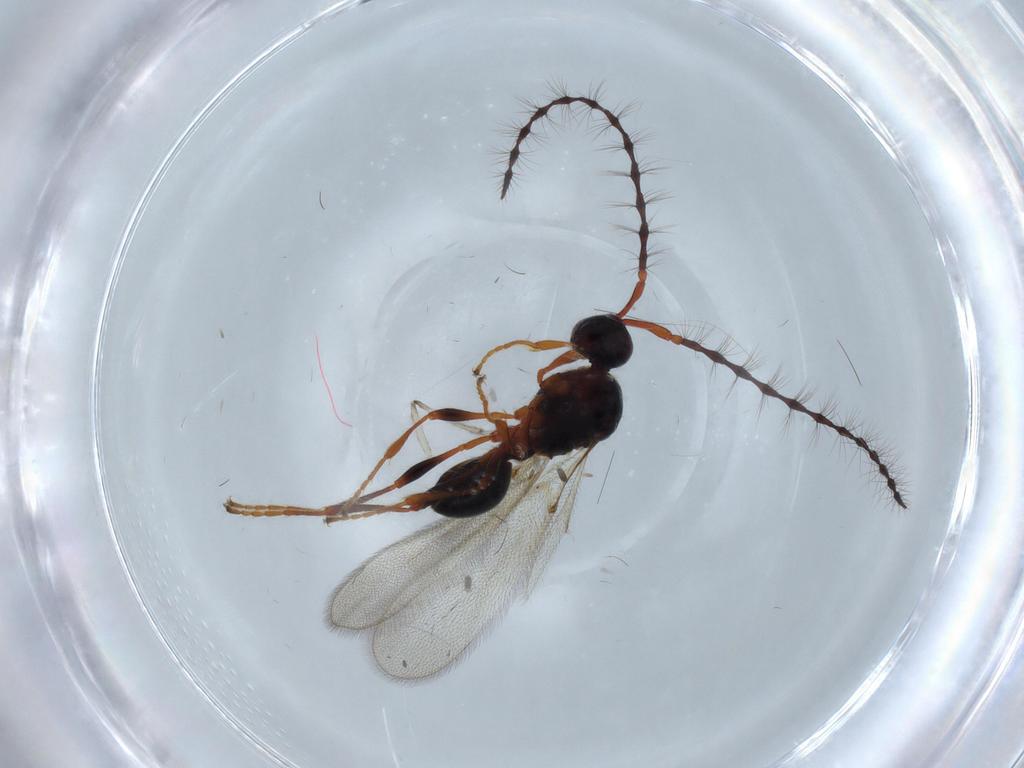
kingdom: Animalia
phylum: Arthropoda
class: Insecta
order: Hymenoptera
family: Diapriidae
